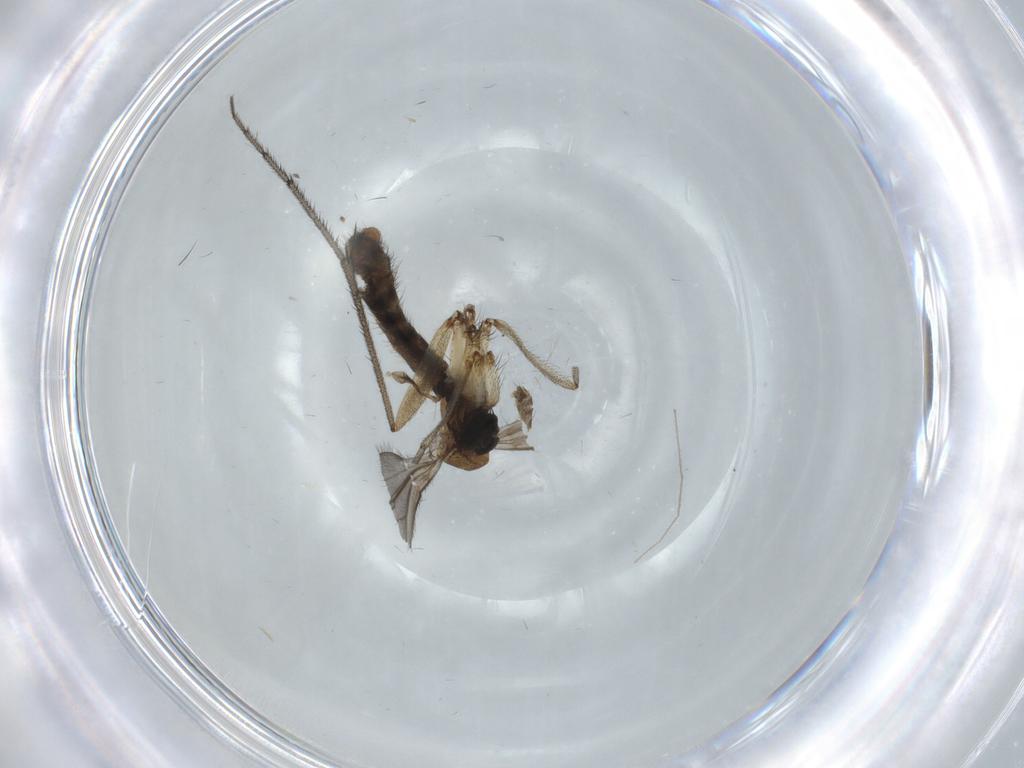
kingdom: Animalia
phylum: Arthropoda
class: Insecta
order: Diptera
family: Ditomyiidae
